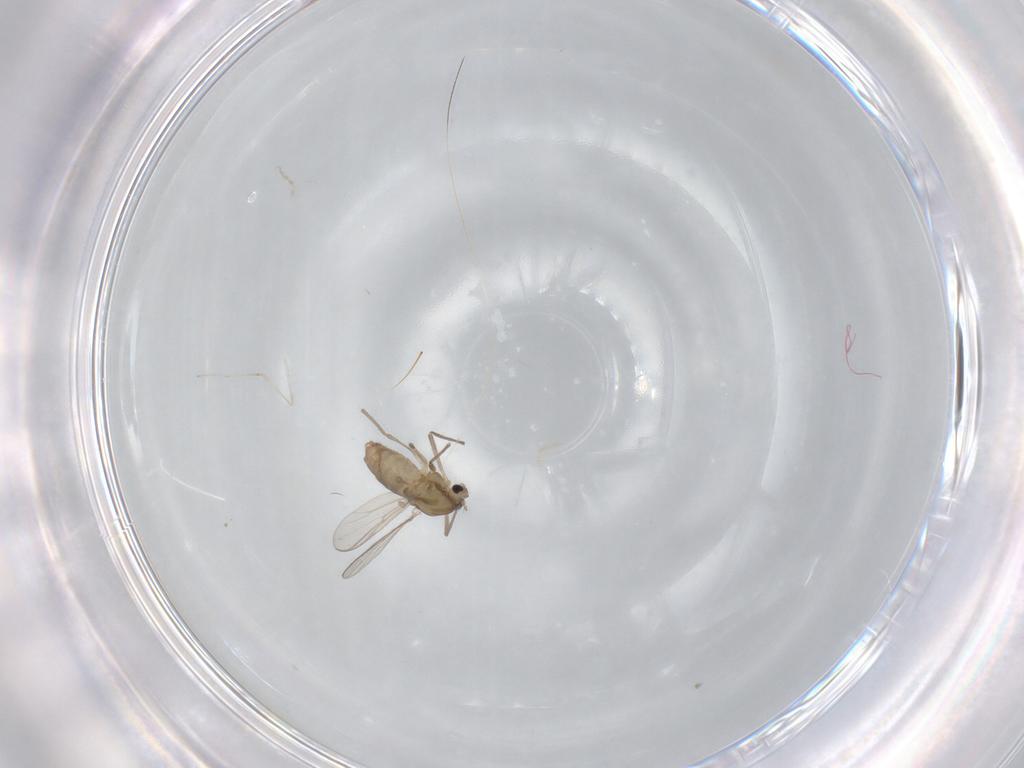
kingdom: Animalia
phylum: Arthropoda
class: Insecta
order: Diptera
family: Chironomidae
